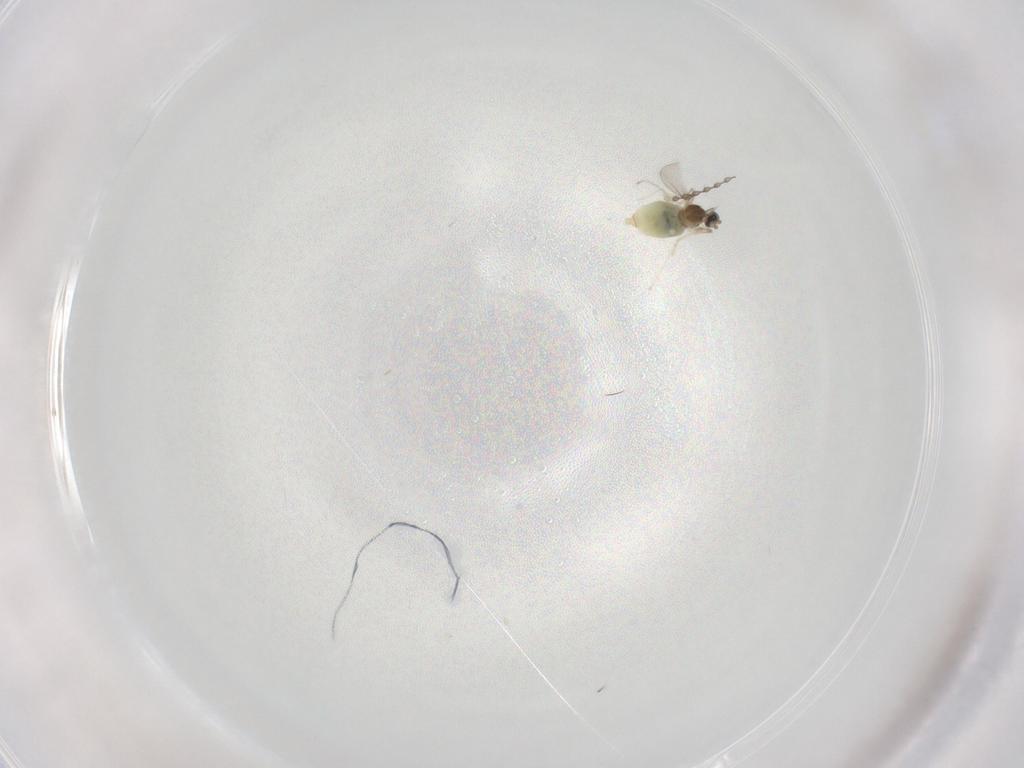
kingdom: Animalia
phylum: Arthropoda
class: Insecta
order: Diptera
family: Cecidomyiidae
